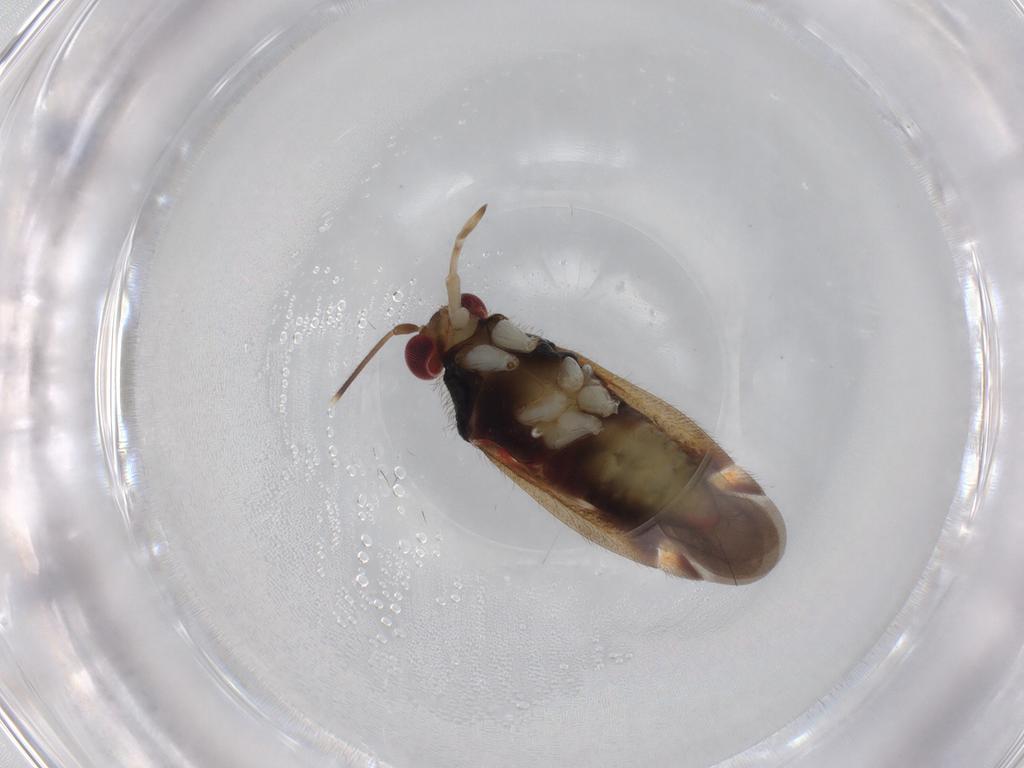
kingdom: Animalia
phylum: Arthropoda
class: Insecta
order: Hemiptera
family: Miridae
